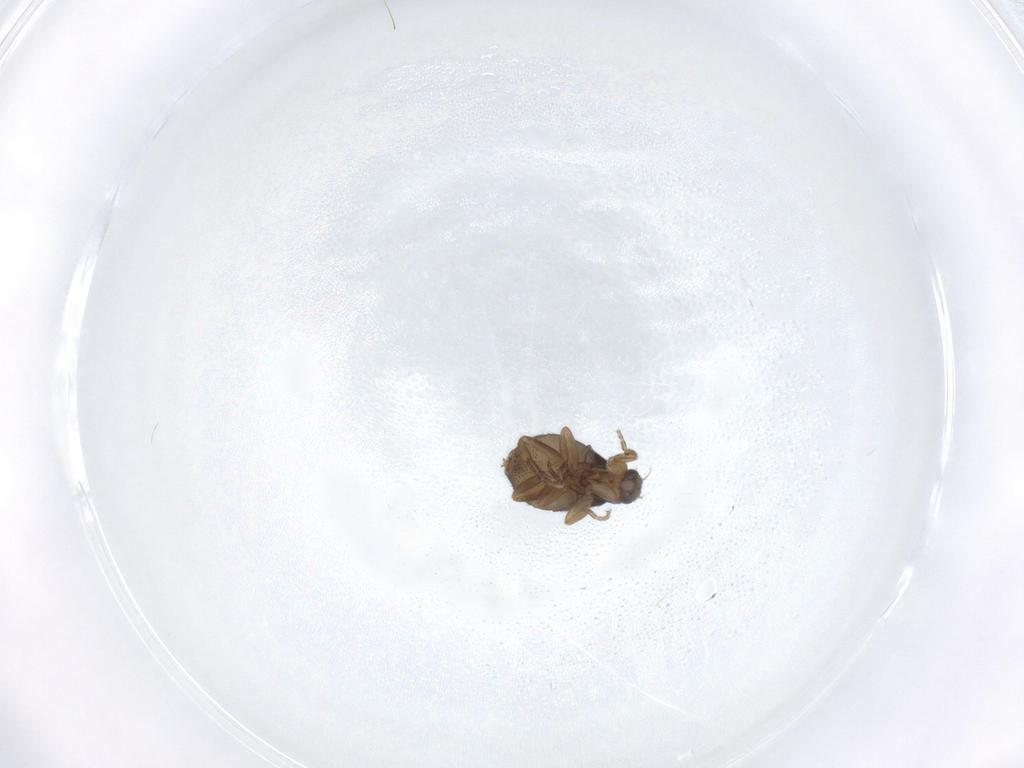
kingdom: Animalia
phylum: Arthropoda
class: Insecta
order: Diptera
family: Phoridae
